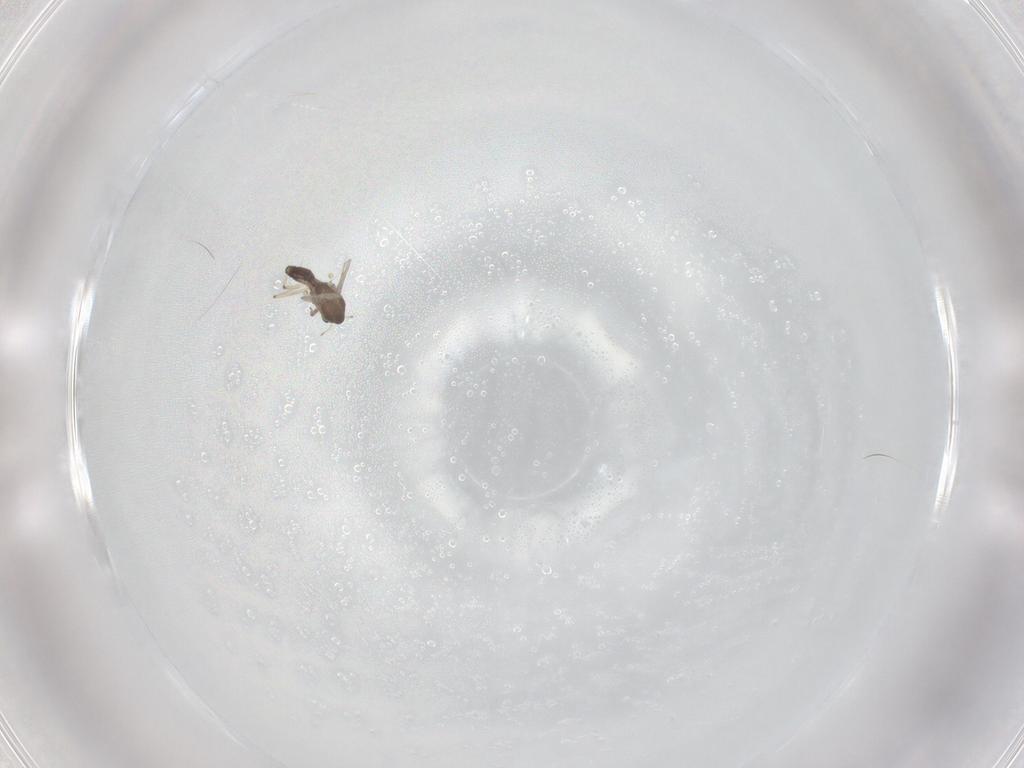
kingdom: Animalia
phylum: Arthropoda
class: Insecta
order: Diptera
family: Chironomidae
